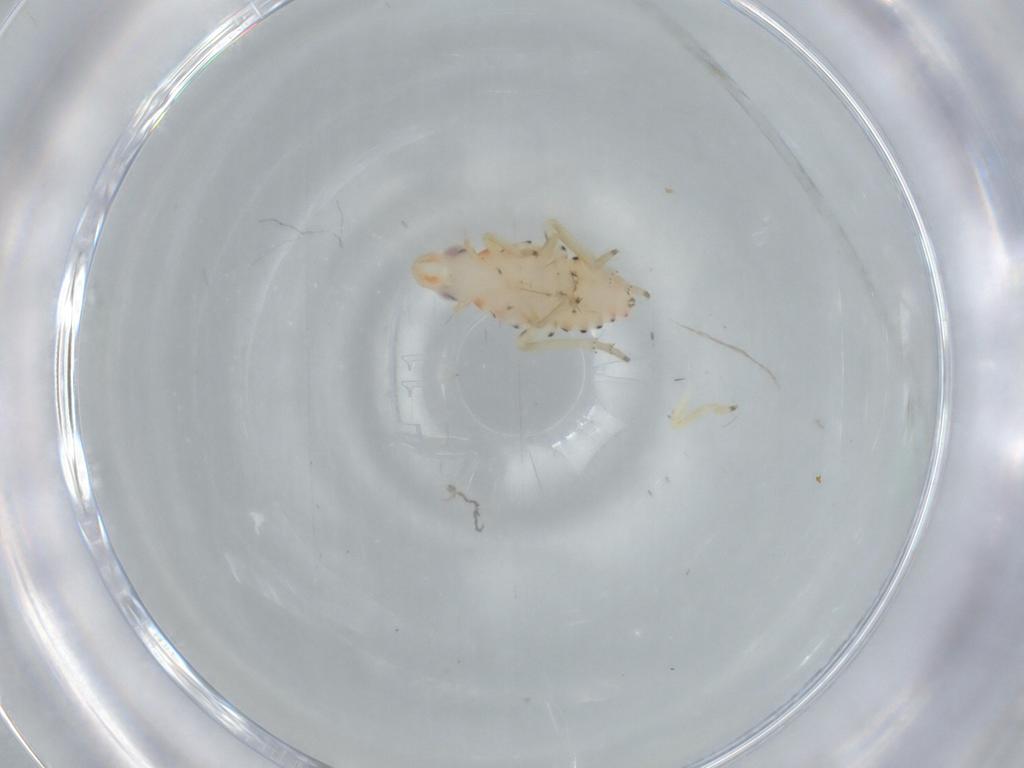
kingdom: Animalia
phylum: Arthropoda
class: Insecta
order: Hemiptera
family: Tropiduchidae
